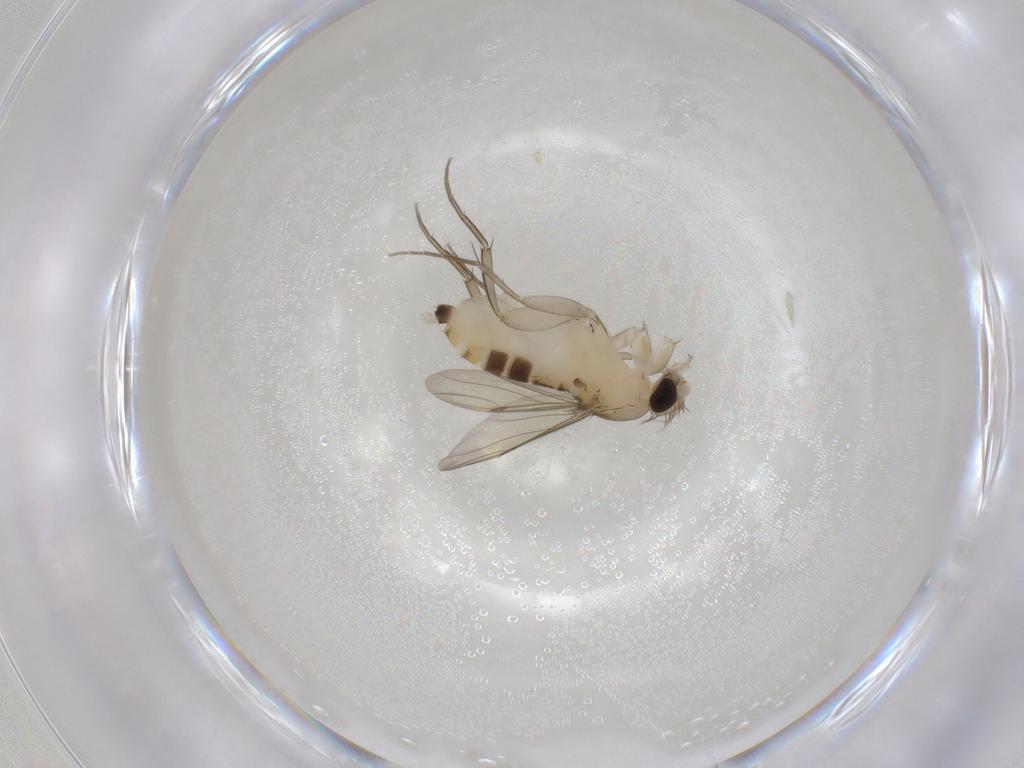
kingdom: Animalia
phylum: Arthropoda
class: Insecta
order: Diptera
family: Phoridae
